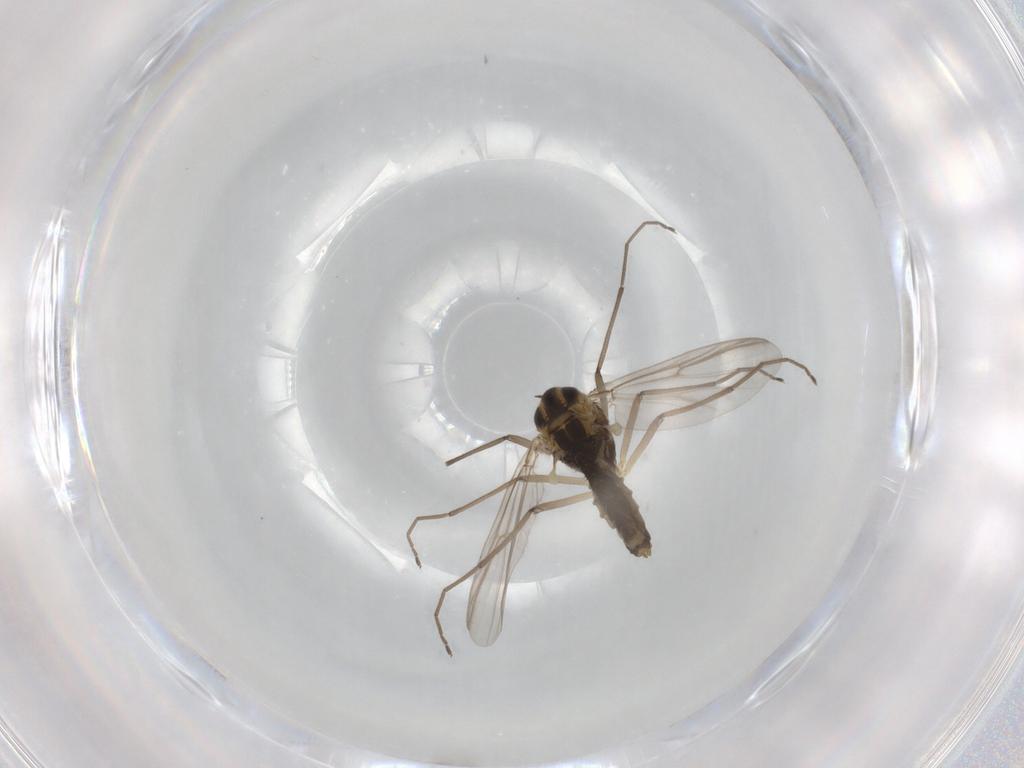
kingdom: Animalia
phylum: Arthropoda
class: Insecta
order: Diptera
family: Chironomidae
